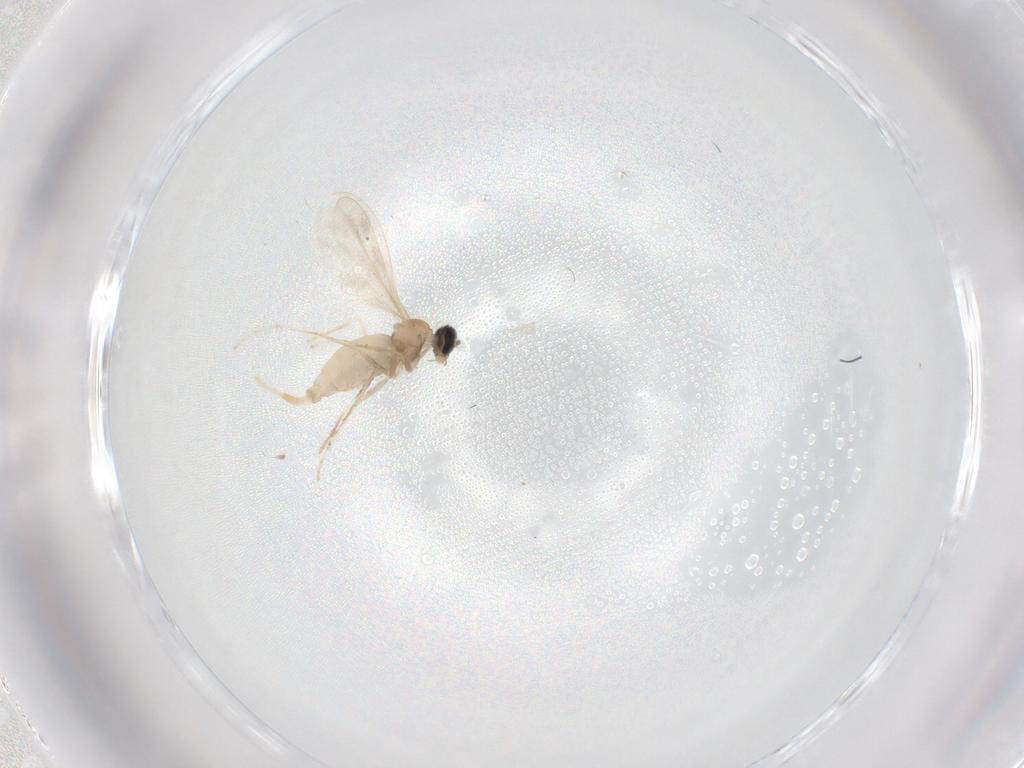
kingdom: Animalia
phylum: Arthropoda
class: Insecta
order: Diptera
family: Cecidomyiidae
